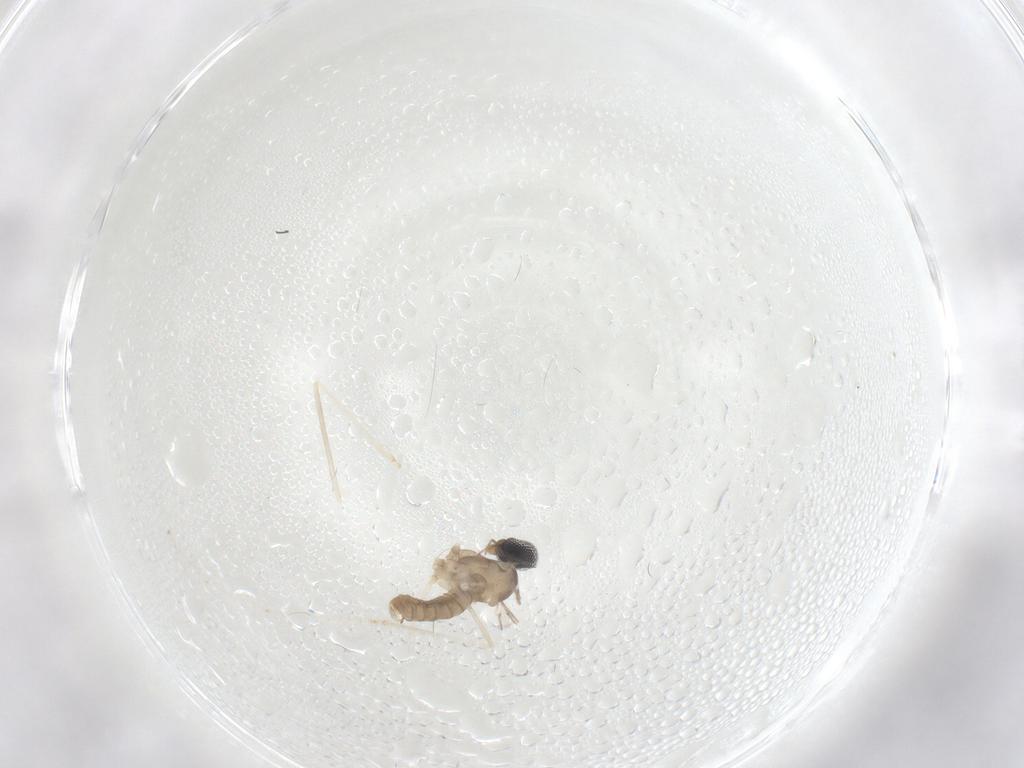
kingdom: Animalia
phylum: Arthropoda
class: Insecta
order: Diptera
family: Cecidomyiidae
